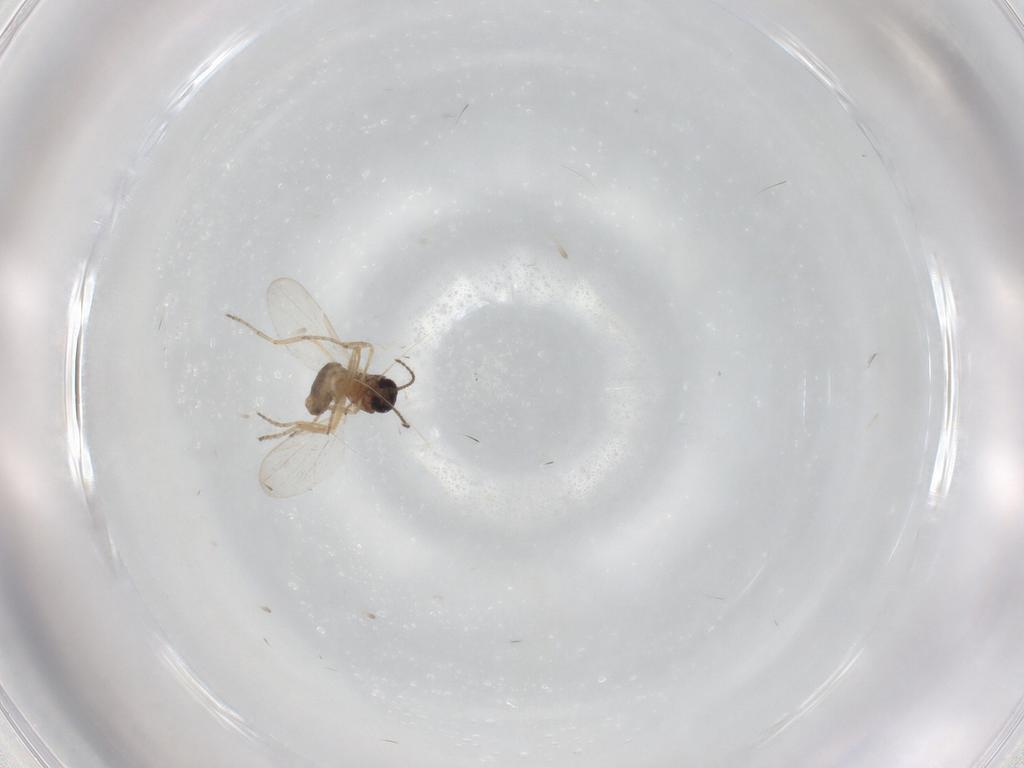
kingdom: Animalia
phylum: Arthropoda
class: Insecta
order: Diptera
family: Ceratopogonidae
